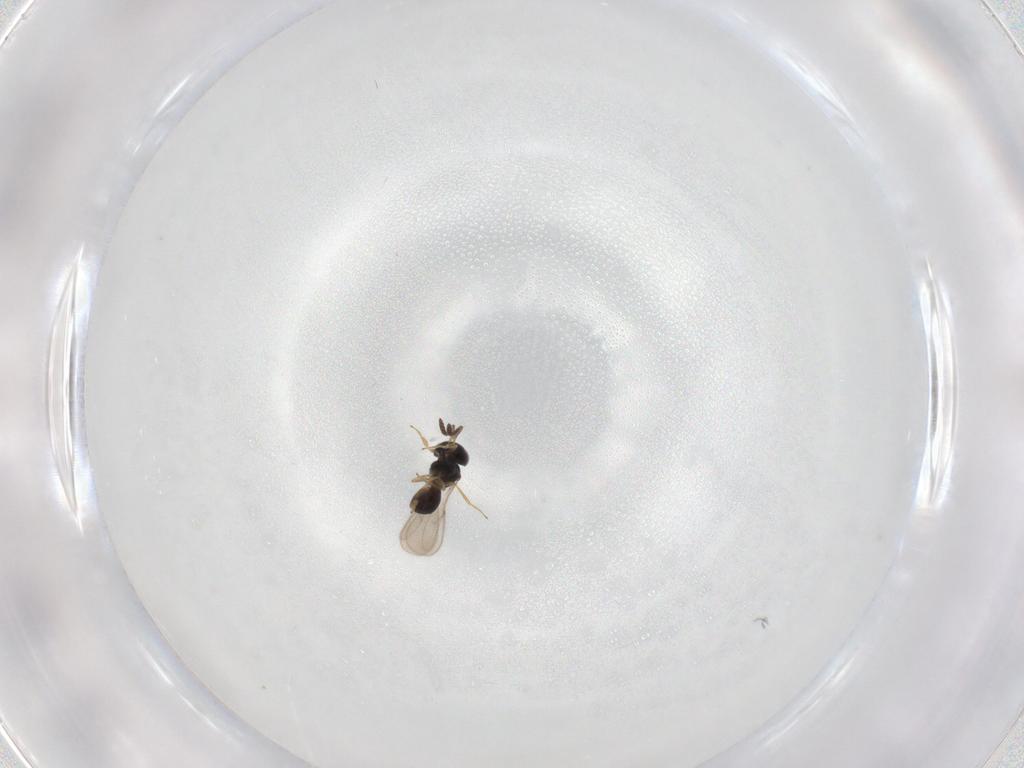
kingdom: Animalia
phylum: Arthropoda
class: Insecta
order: Hymenoptera
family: Scelionidae
